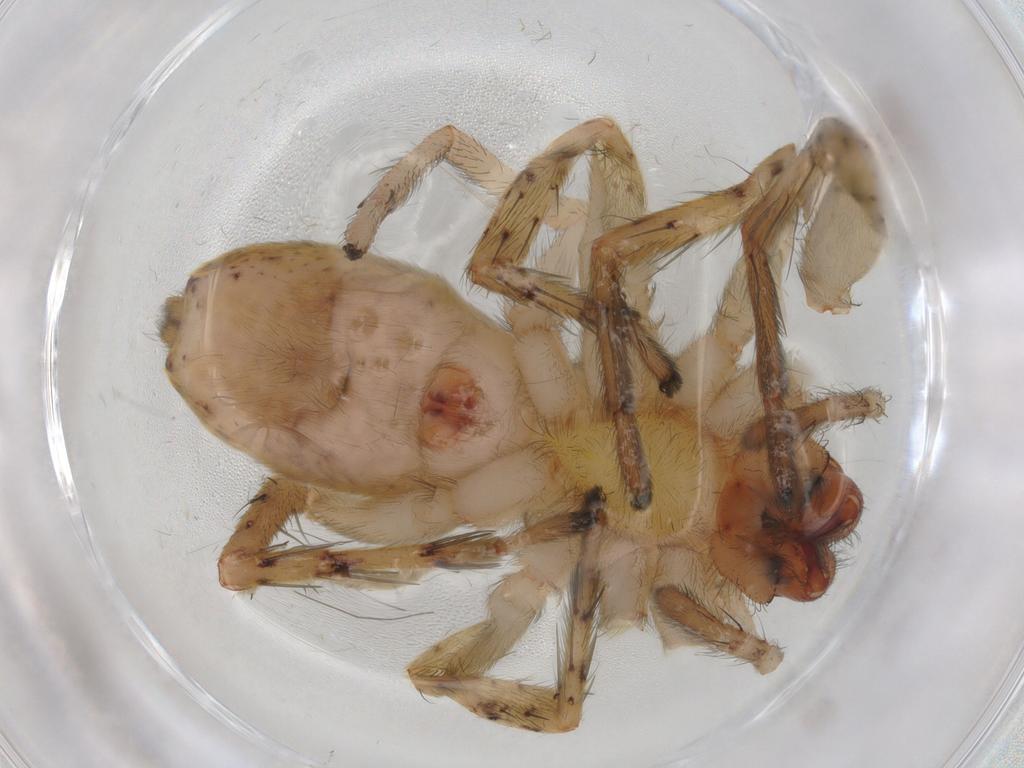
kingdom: Animalia
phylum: Arthropoda
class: Arachnida
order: Araneae
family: Anyphaenidae
